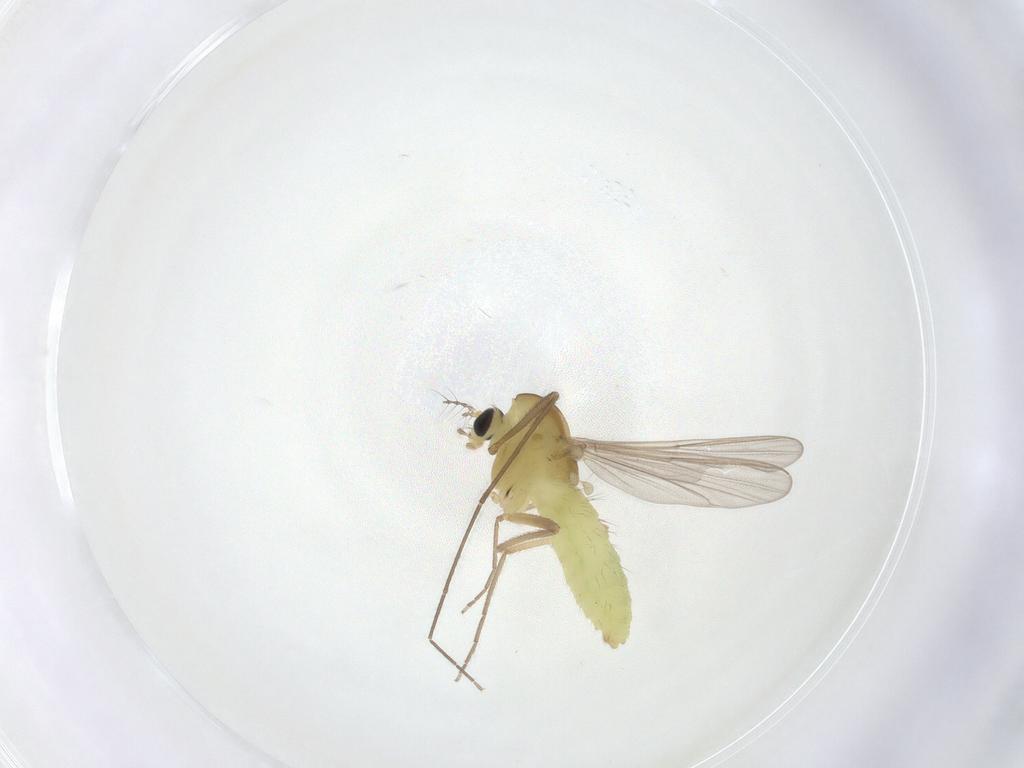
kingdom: Animalia
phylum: Arthropoda
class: Insecta
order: Diptera
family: Chironomidae
